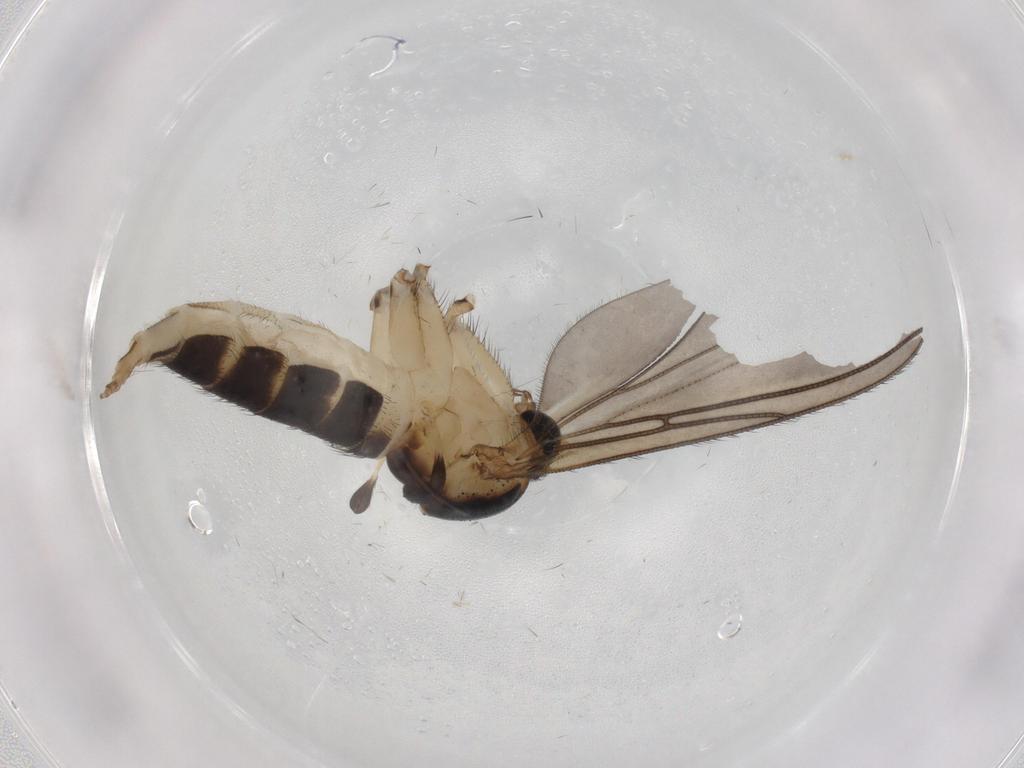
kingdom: Animalia
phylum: Arthropoda
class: Insecta
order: Diptera
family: Sciaridae
